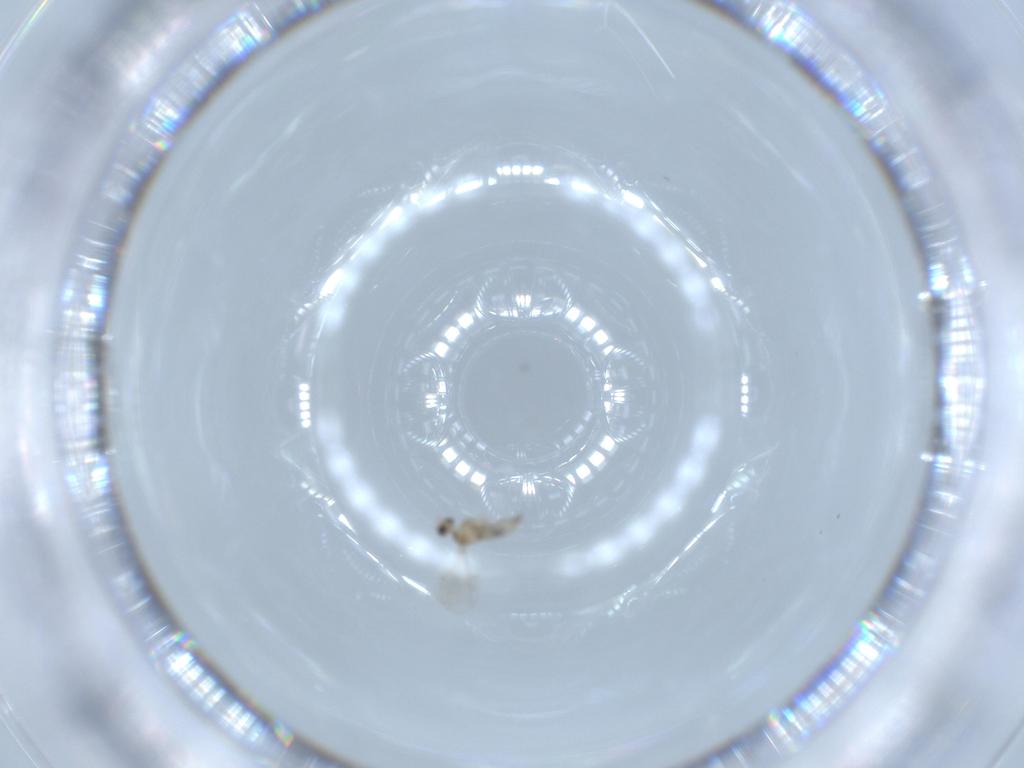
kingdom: Animalia
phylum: Arthropoda
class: Insecta
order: Diptera
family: Cecidomyiidae
